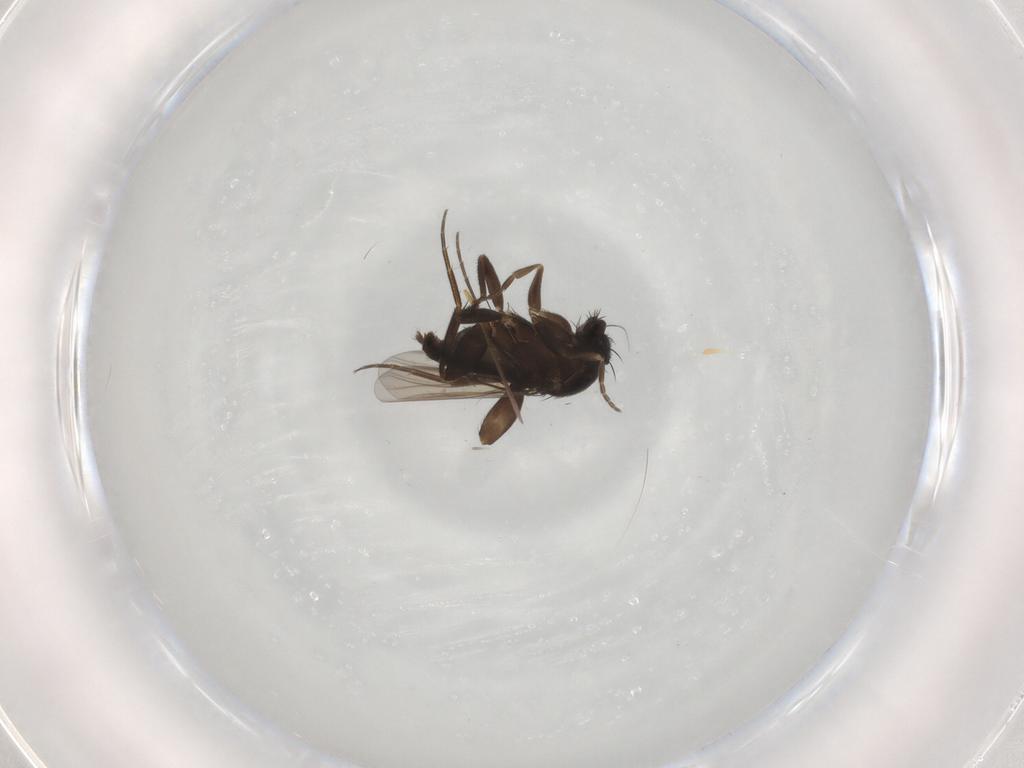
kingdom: Animalia
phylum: Arthropoda
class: Insecta
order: Diptera
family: Phoridae
